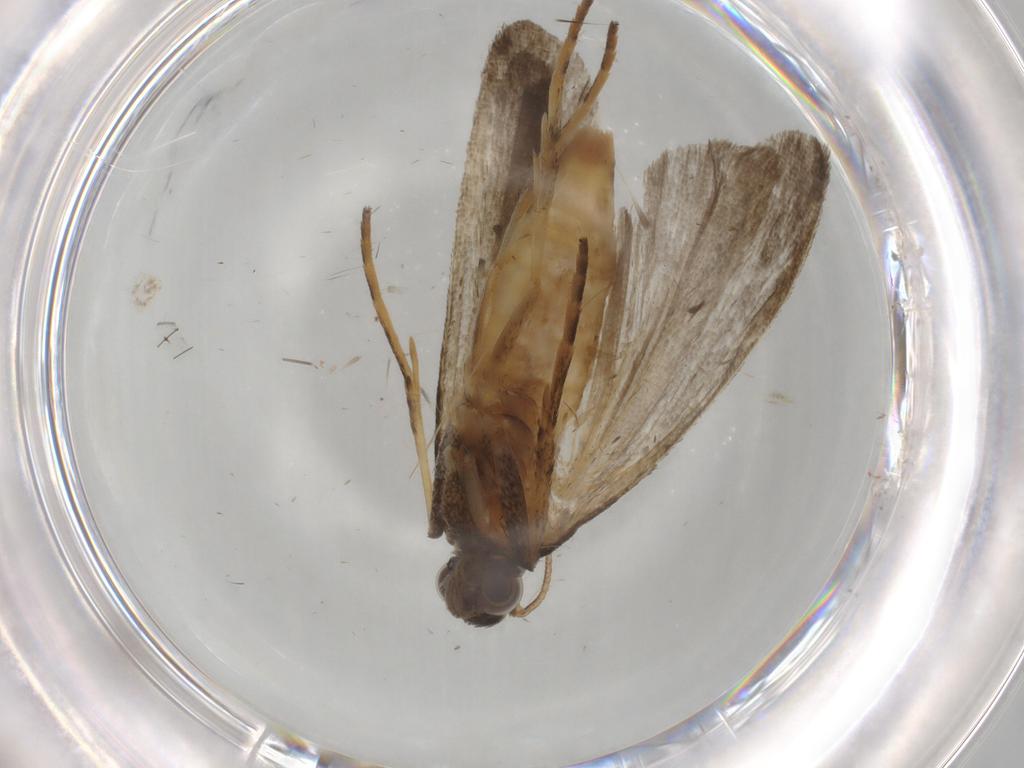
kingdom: Animalia
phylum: Arthropoda
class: Insecta
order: Lepidoptera
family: Noctuidae
